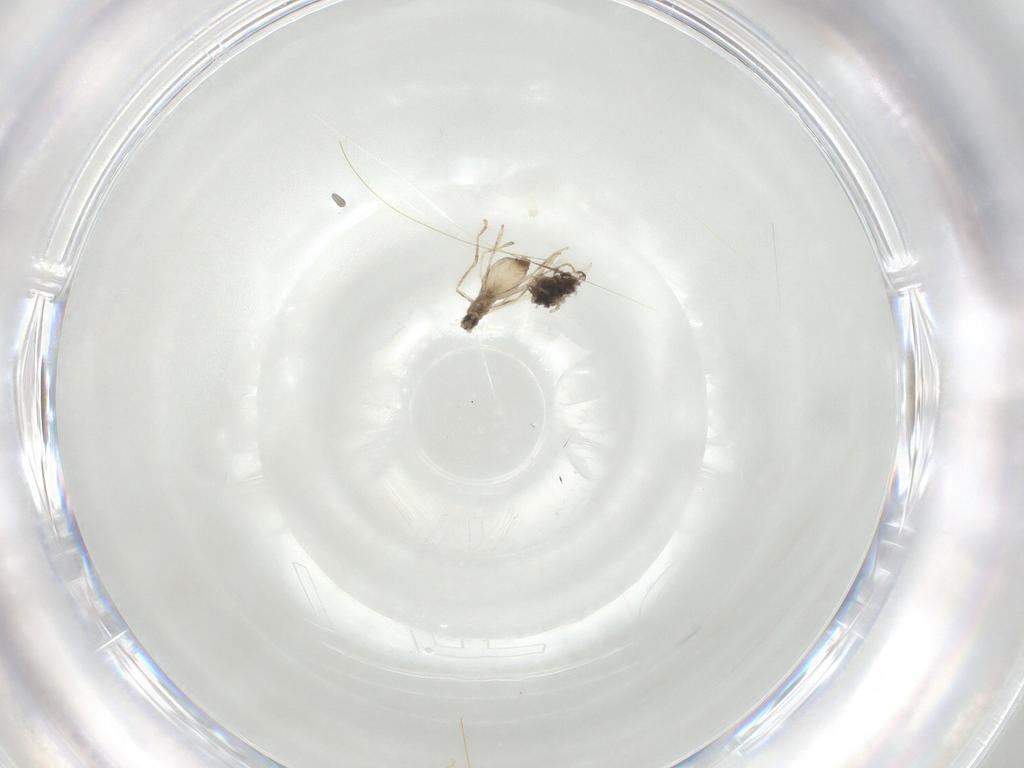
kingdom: Animalia
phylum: Arthropoda
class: Insecta
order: Diptera
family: Cecidomyiidae
